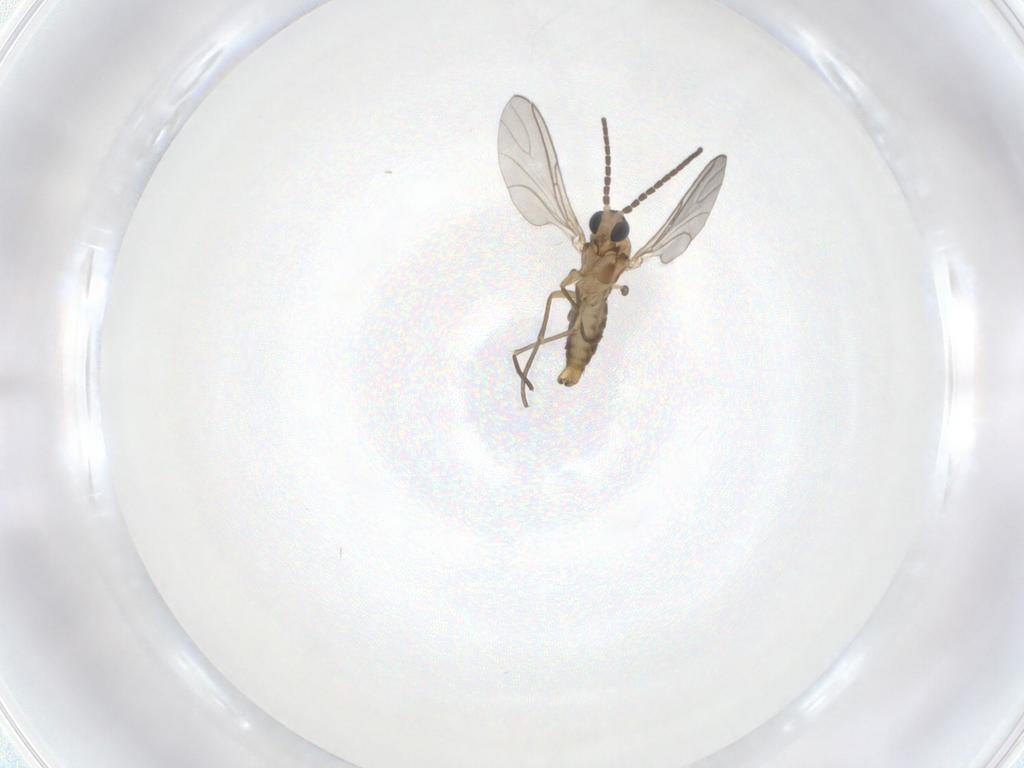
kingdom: Animalia
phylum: Arthropoda
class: Insecta
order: Diptera
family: Sciaridae
